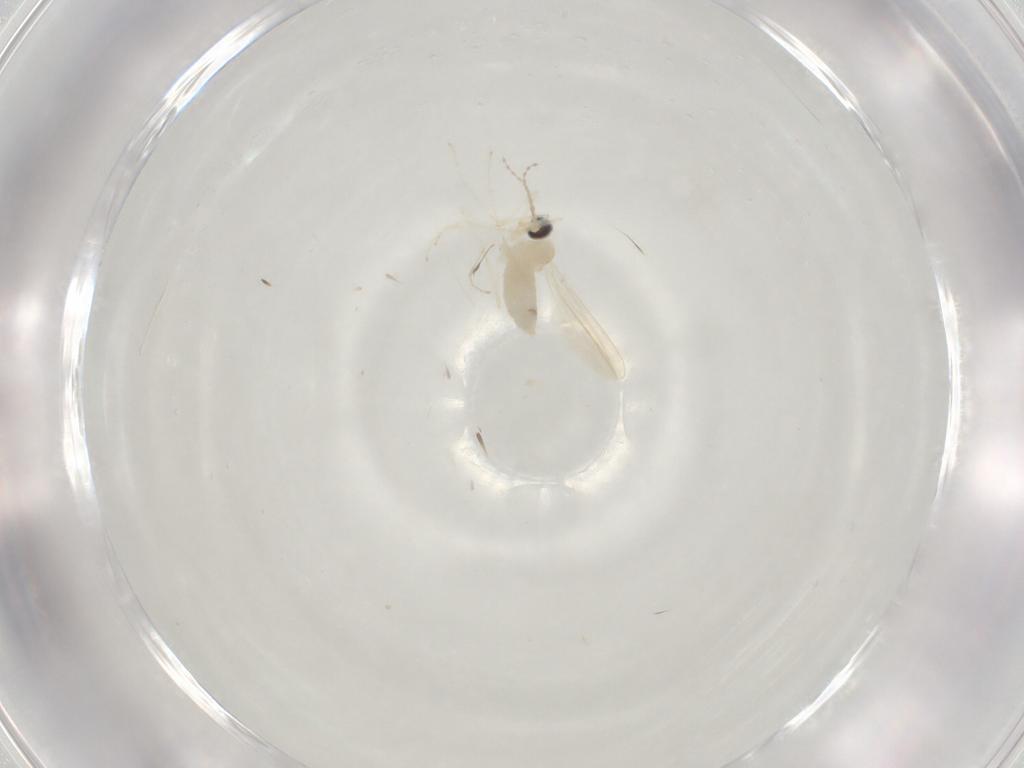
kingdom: Animalia
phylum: Arthropoda
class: Insecta
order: Diptera
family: Cecidomyiidae
